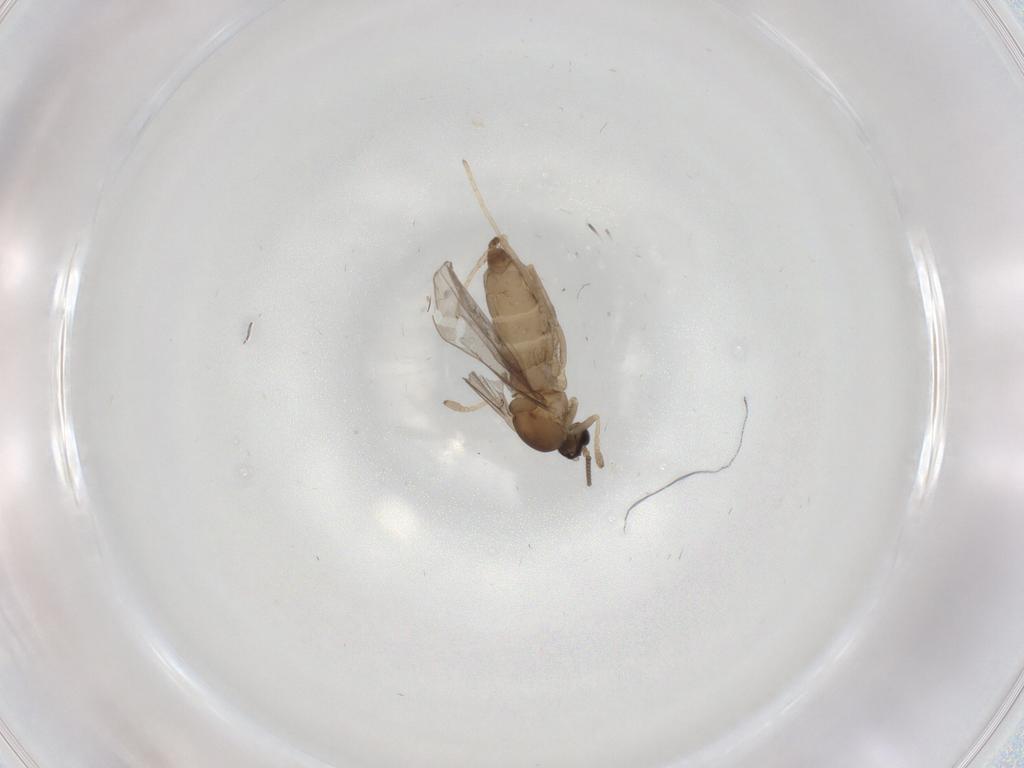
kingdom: Animalia
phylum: Arthropoda
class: Insecta
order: Diptera
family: Cecidomyiidae
